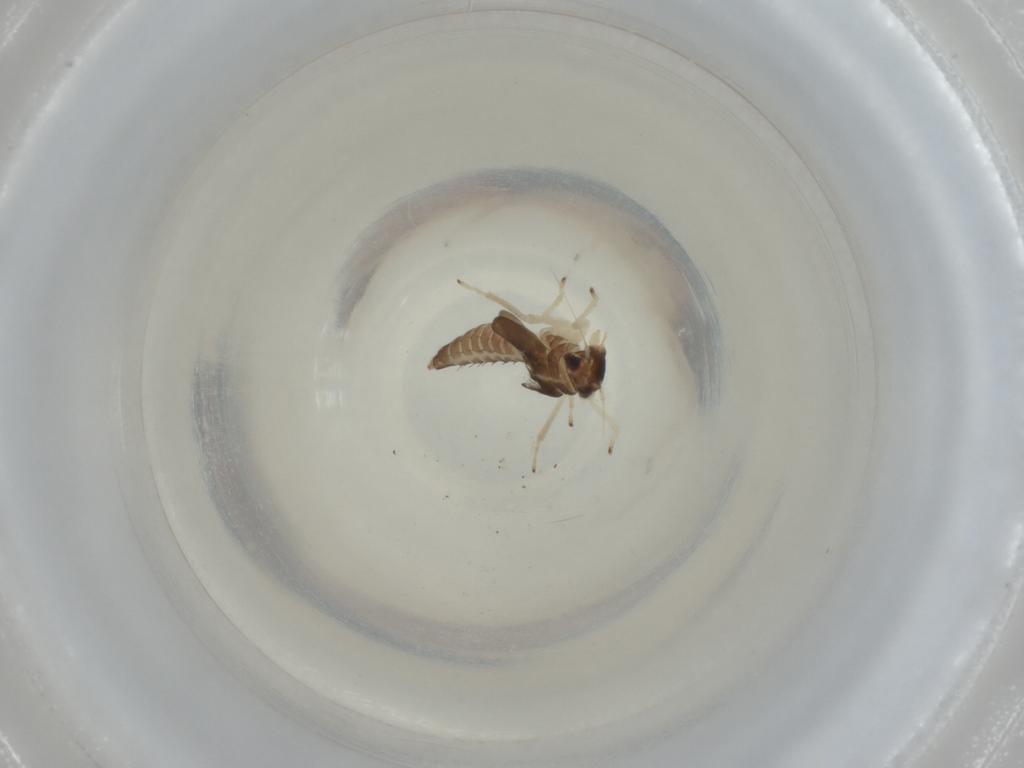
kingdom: Animalia
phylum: Arthropoda
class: Insecta
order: Hemiptera
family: Cicadellidae
